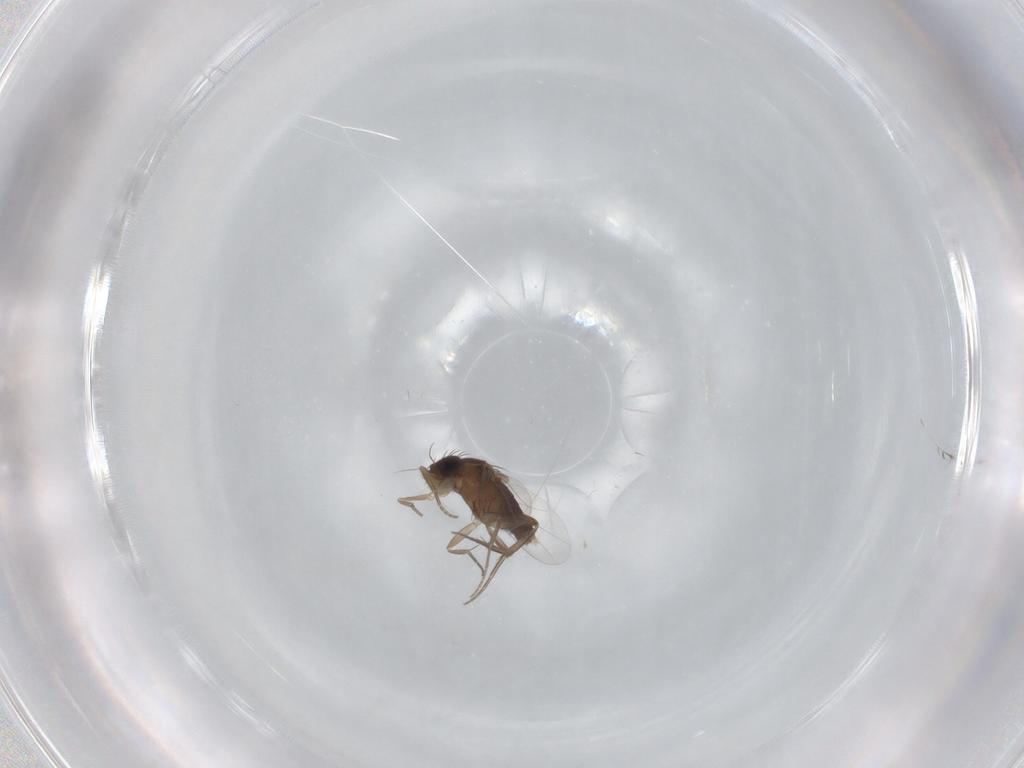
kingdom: Animalia
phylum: Arthropoda
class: Insecta
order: Diptera
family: Phoridae
